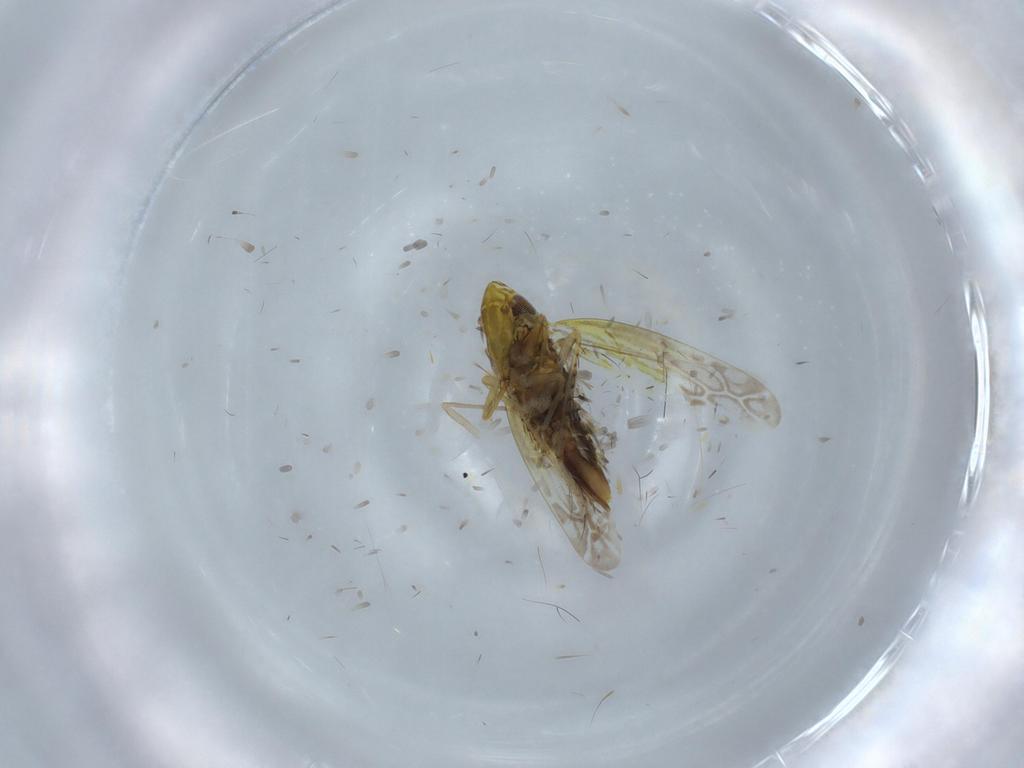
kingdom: Animalia
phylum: Arthropoda
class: Insecta
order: Hemiptera
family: Cicadellidae
